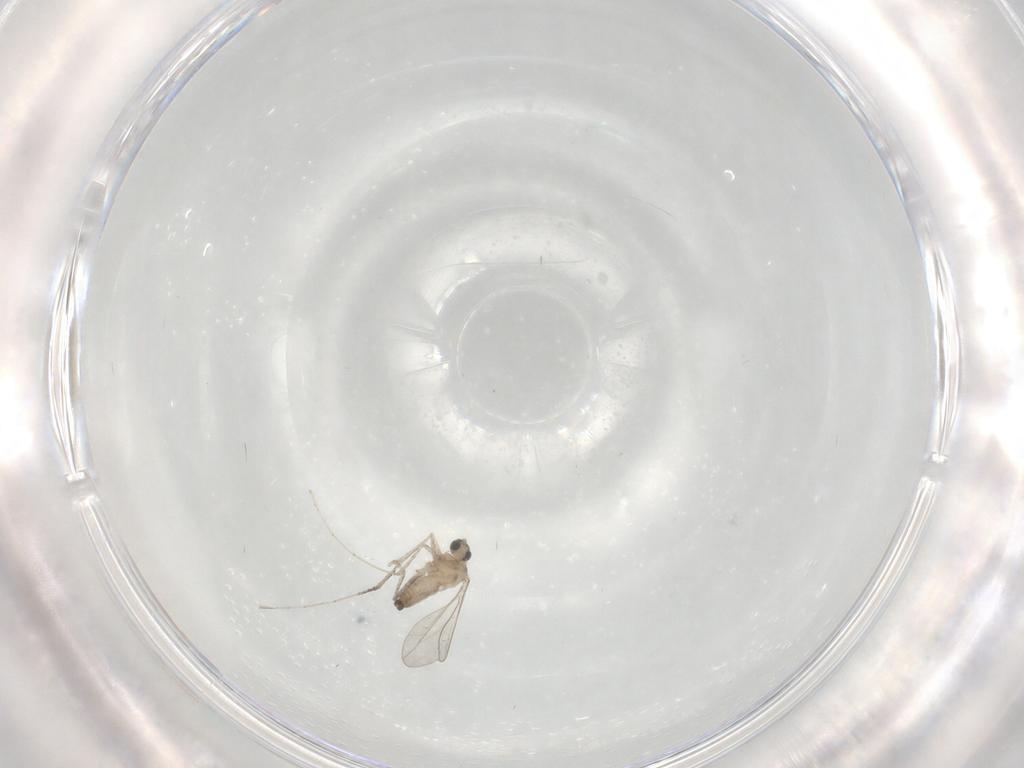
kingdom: Animalia
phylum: Arthropoda
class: Insecta
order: Diptera
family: Cecidomyiidae
